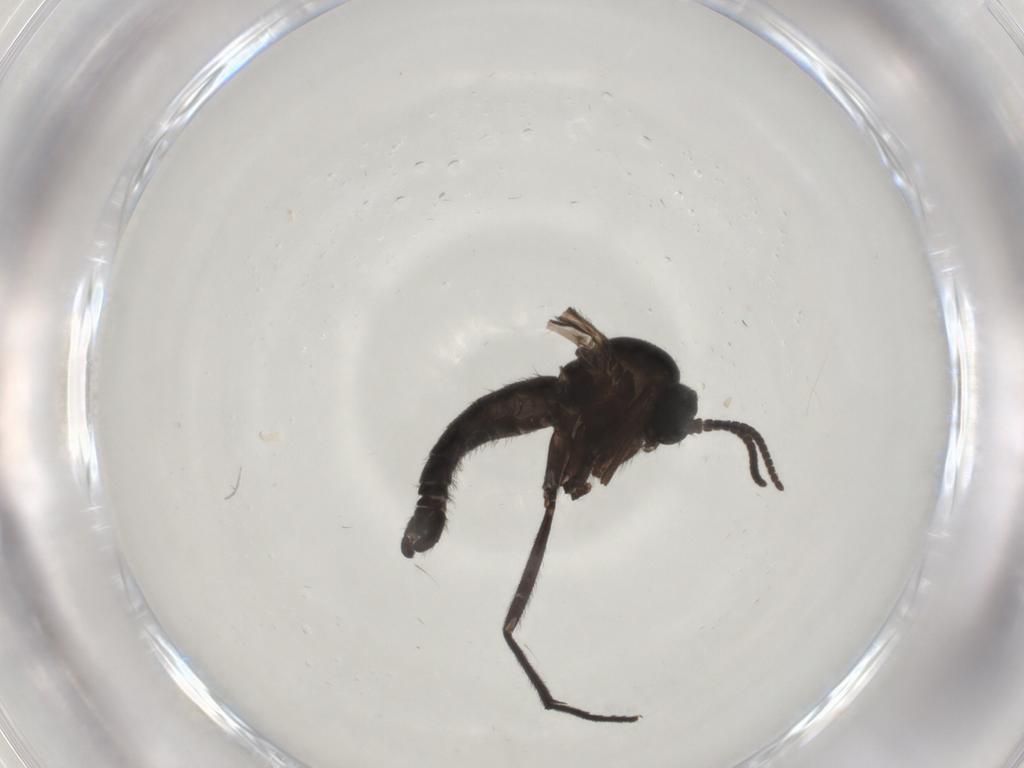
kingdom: Animalia
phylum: Arthropoda
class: Insecta
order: Diptera
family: Sciaridae
